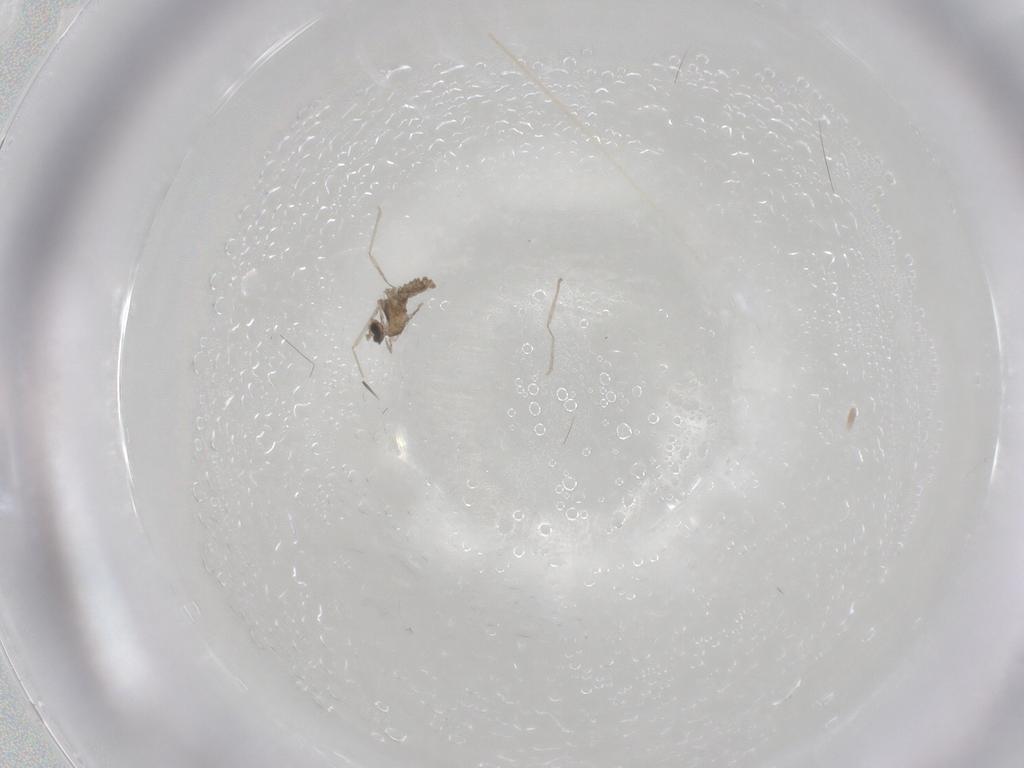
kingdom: Animalia
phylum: Arthropoda
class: Insecta
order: Diptera
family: Cecidomyiidae
